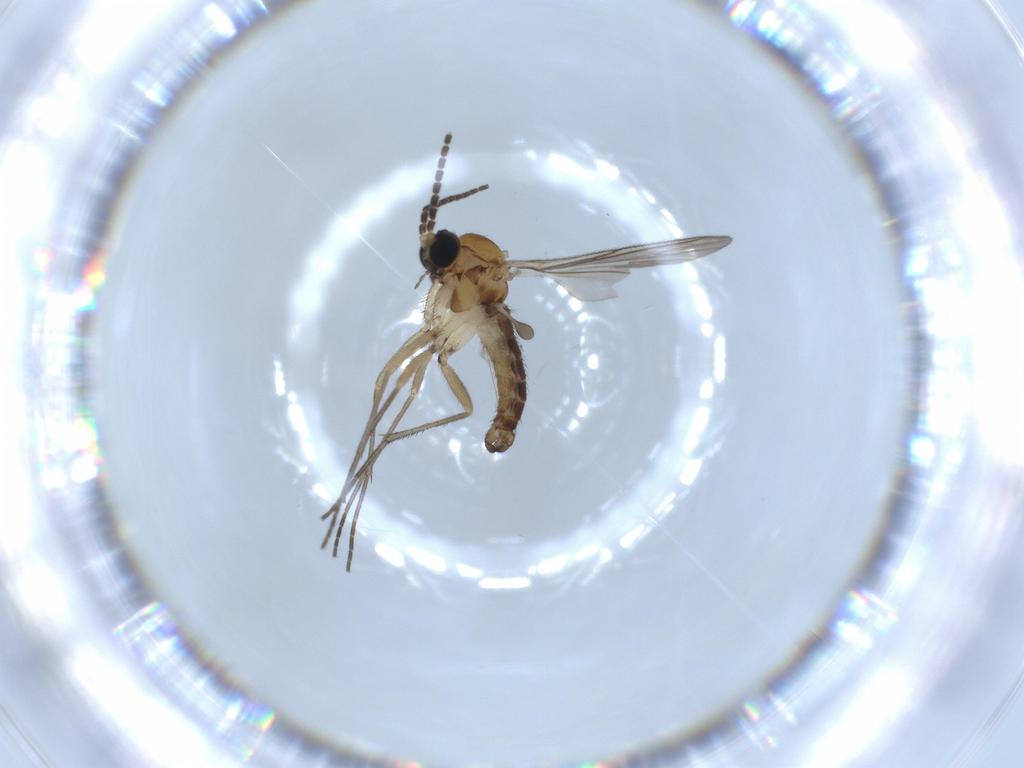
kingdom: Animalia
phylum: Arthropoda
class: Insecta
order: Diptera
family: Sciaridae
